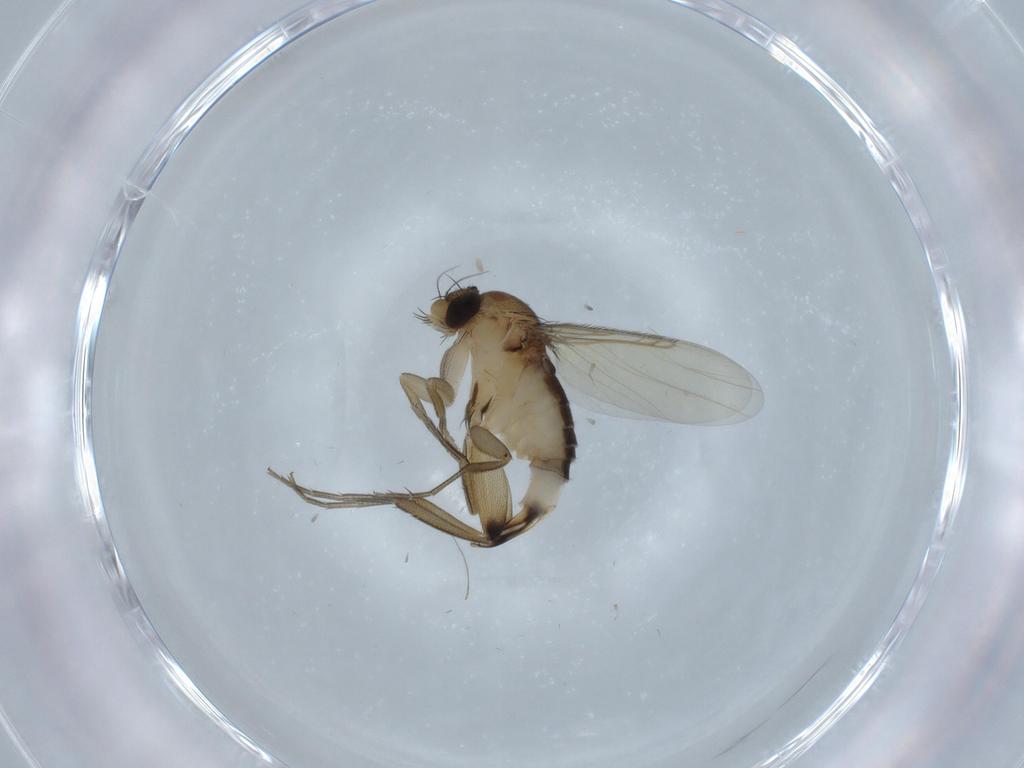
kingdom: Animalia
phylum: Arthropoda
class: Insecta
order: Diptera
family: Phoridae
